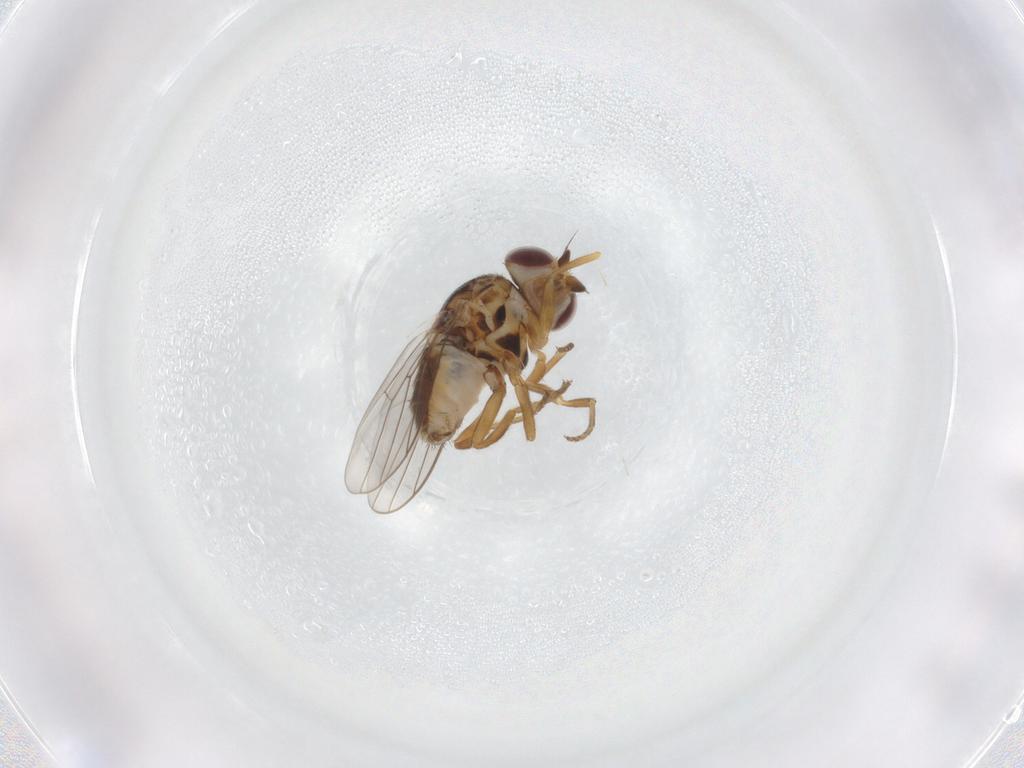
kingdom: Animalia
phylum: Arthropoda
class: Insecta
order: Diptera
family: Chloropidae
